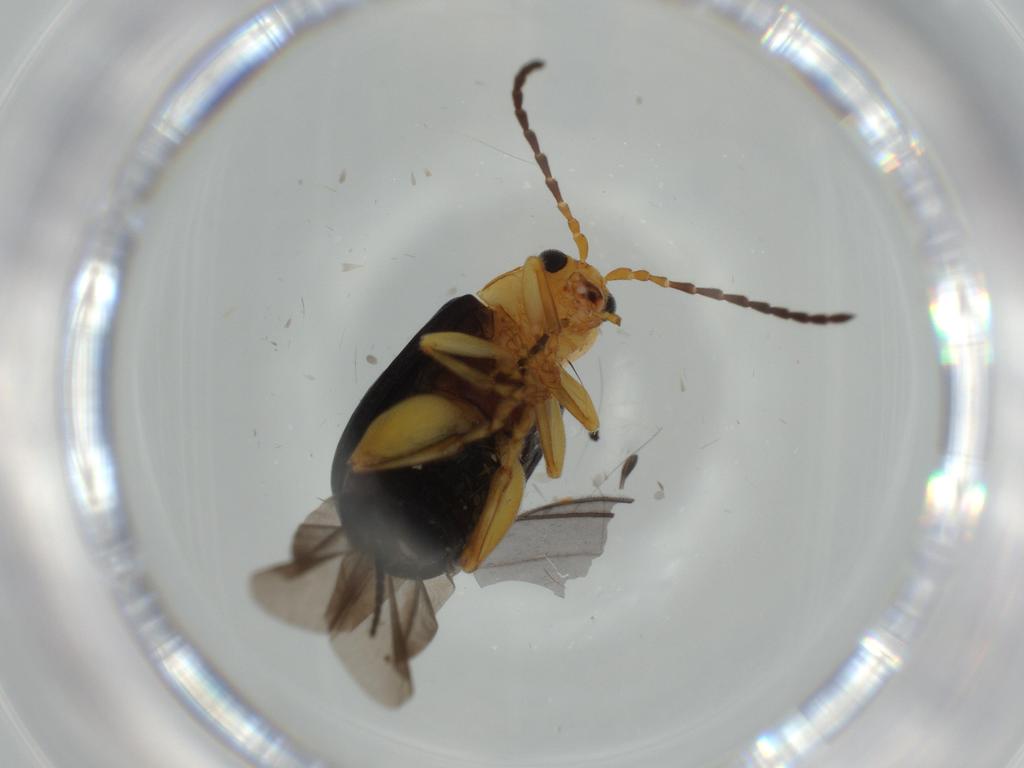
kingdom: Animalia
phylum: Arthropoda
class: Insecta
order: Coleoptera
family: Chrysomelidae
